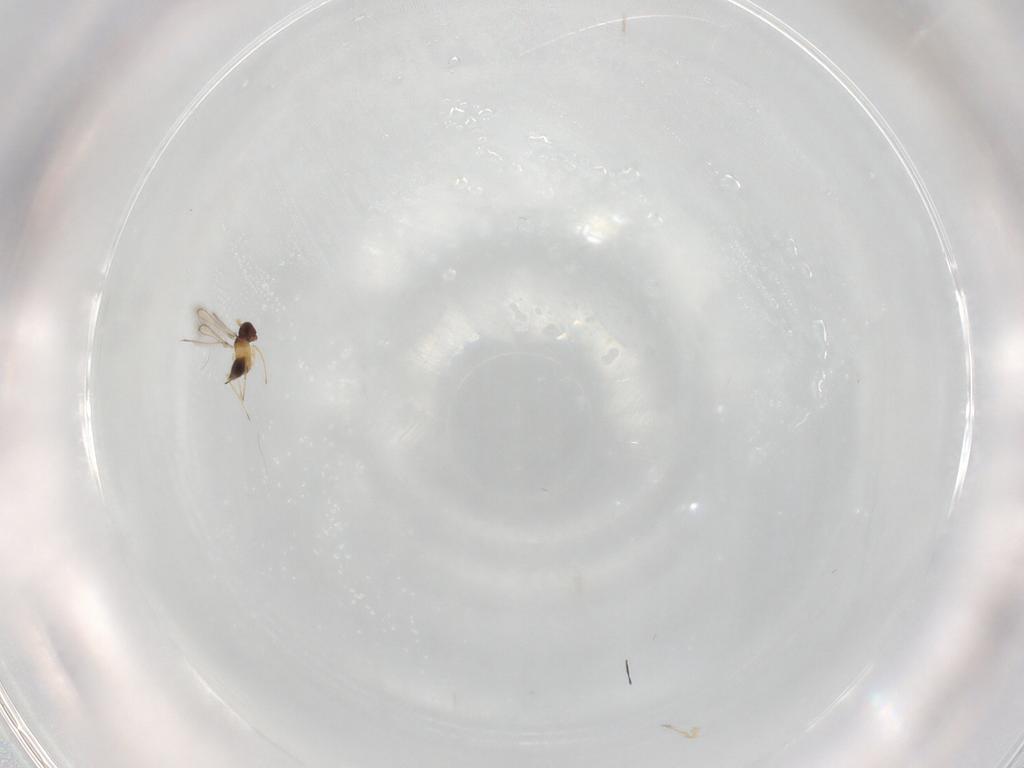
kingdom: Animalia
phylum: Arthropoda
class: Insecta
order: Hymenoptera
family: Mymaridae
